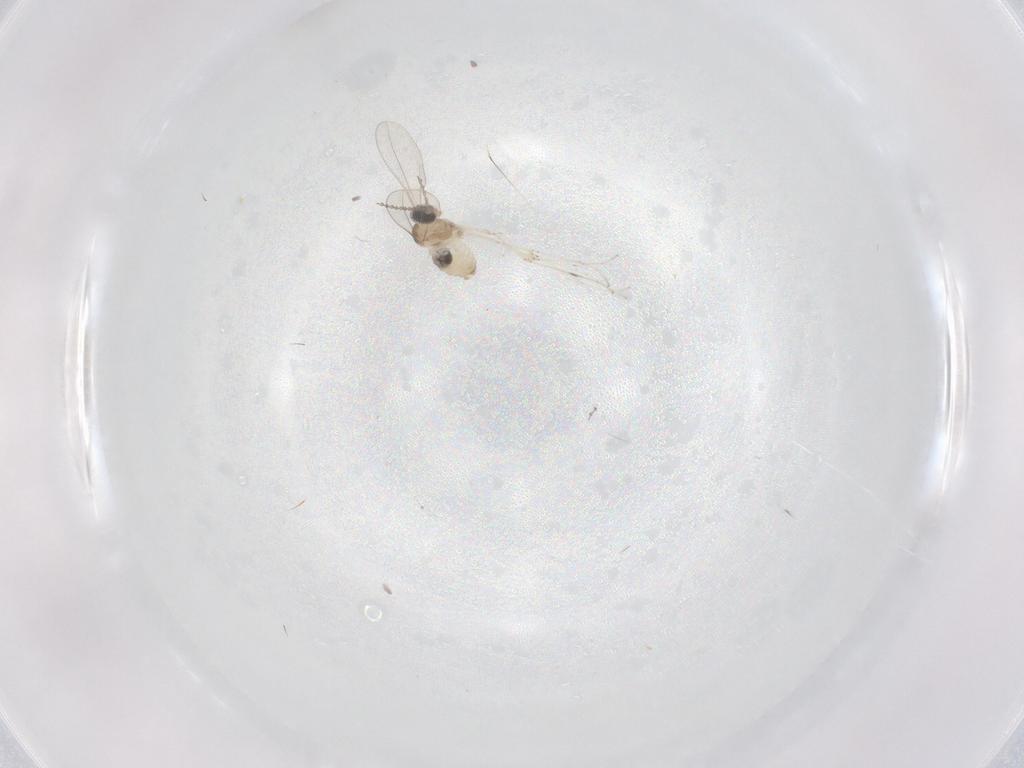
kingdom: Animalia
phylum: Arthropoda
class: Insecta
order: Diptera
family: Cecidomyiidae
